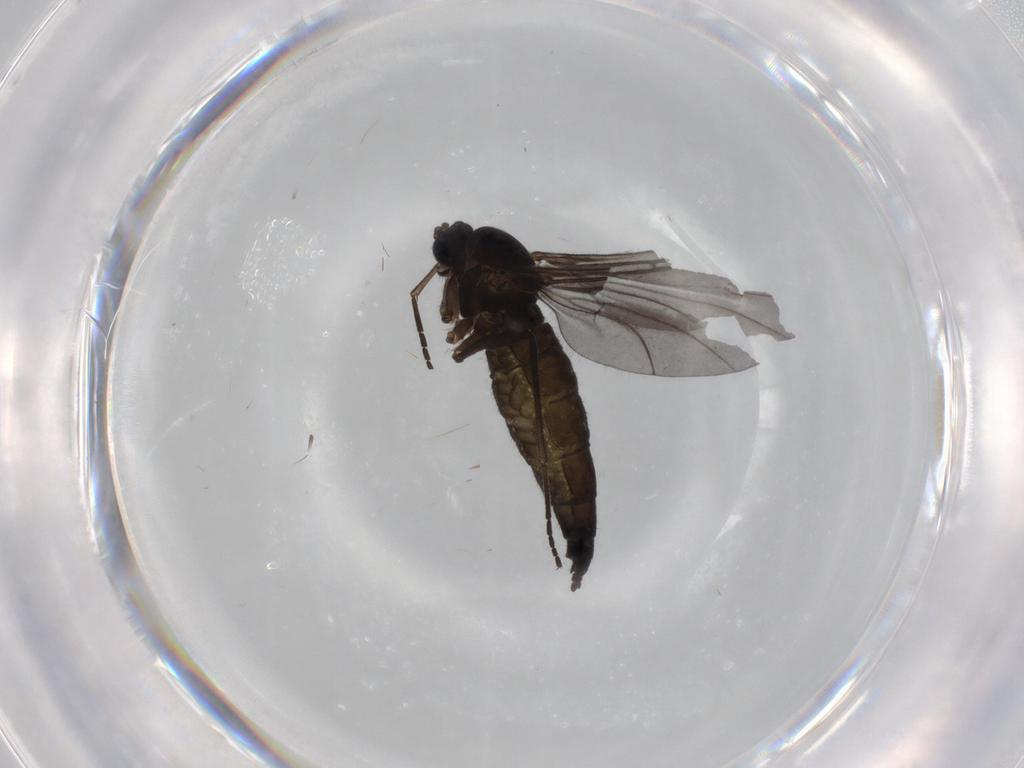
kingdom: Animalia
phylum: Arthropoda
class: Insecta
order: Diptera
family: Sciaridae
